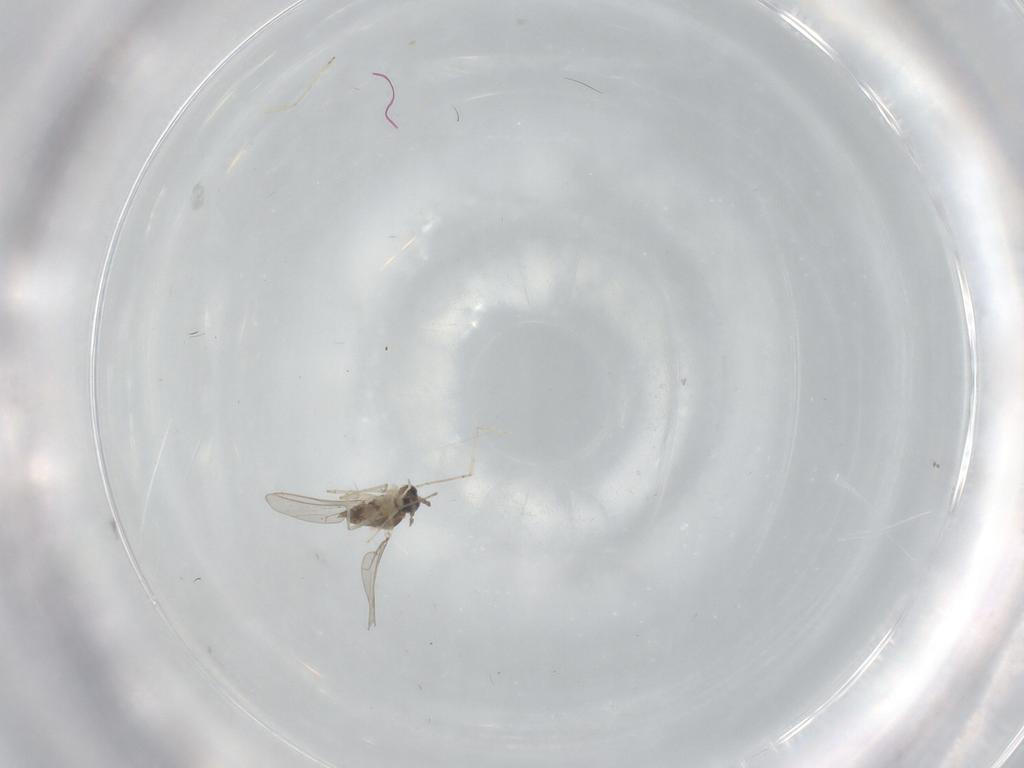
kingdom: Animalia
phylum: Arthropoda
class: Insecta
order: Diptera
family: Cecidomyiidae
